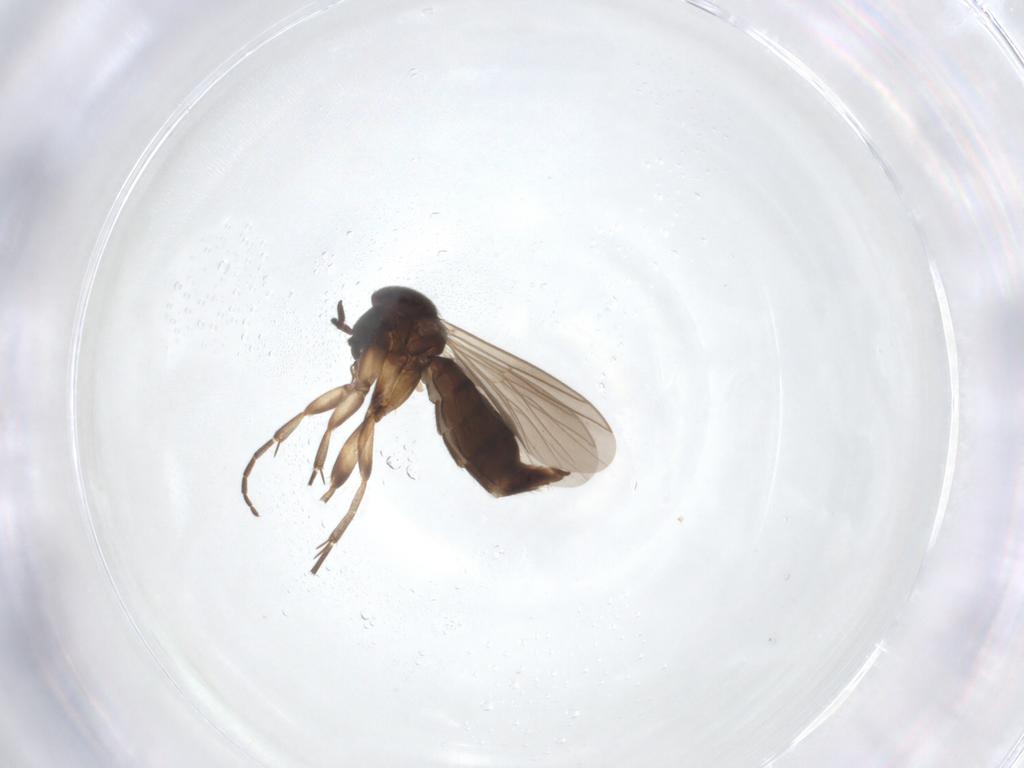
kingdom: Animalia
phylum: Arthropoda
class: Insecta
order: Diptera
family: Mycetophilidae
